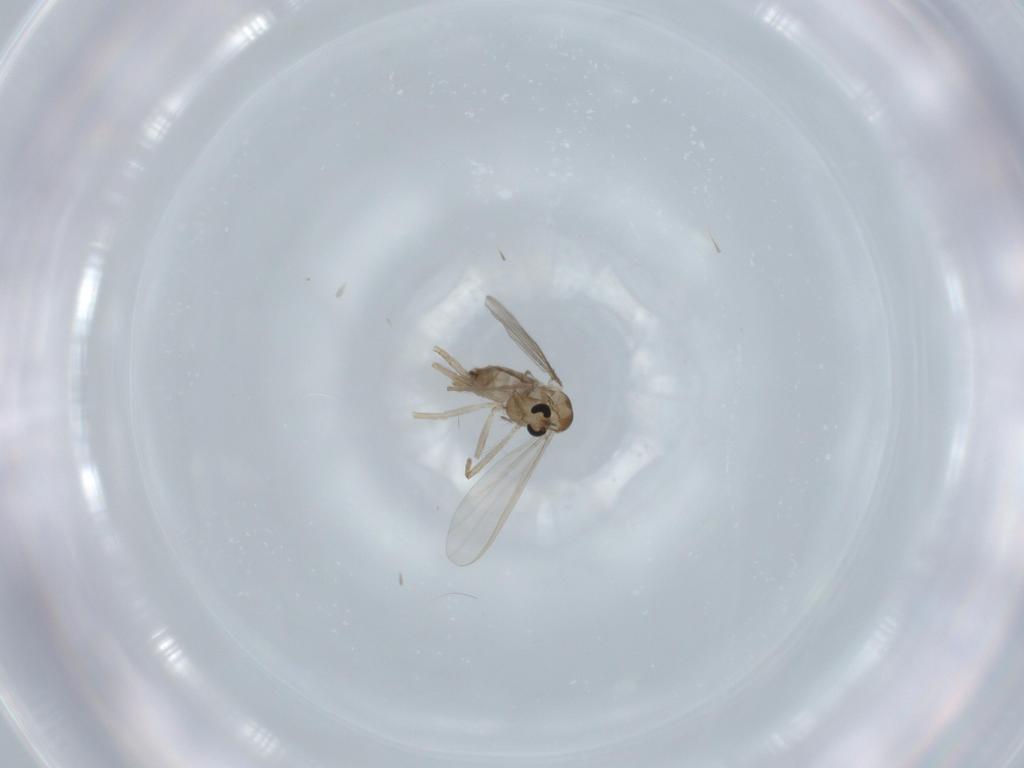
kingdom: Animalia
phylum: Arthropoda
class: Insecta
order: Diptera
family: Chironomidae
